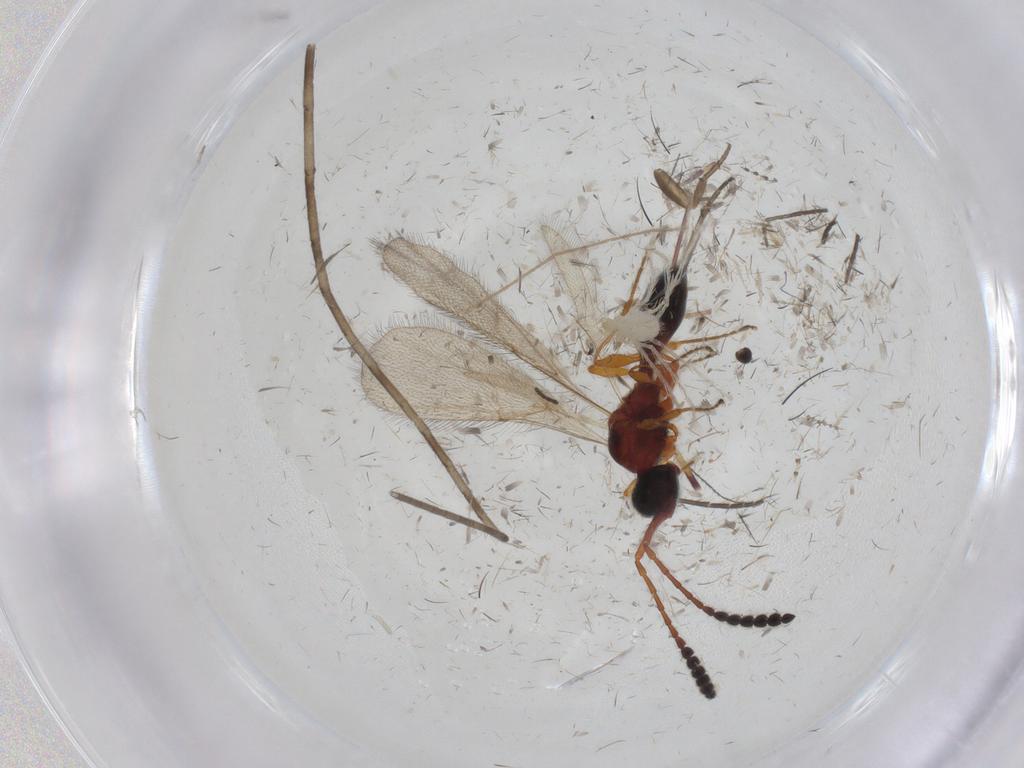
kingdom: Animalia
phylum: Arthropoda
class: Insecta
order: Hymenoptera
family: Diapriidae
